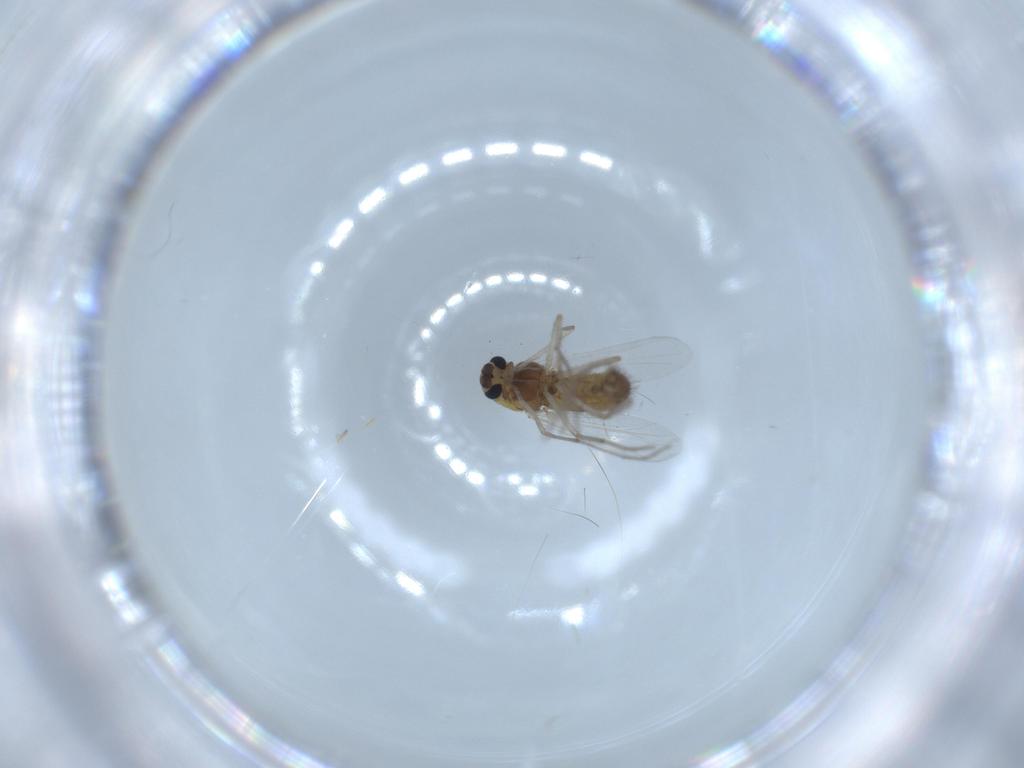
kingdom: Animalia
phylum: Arthropoda
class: Insecta
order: Diptera
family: Chironomidae
